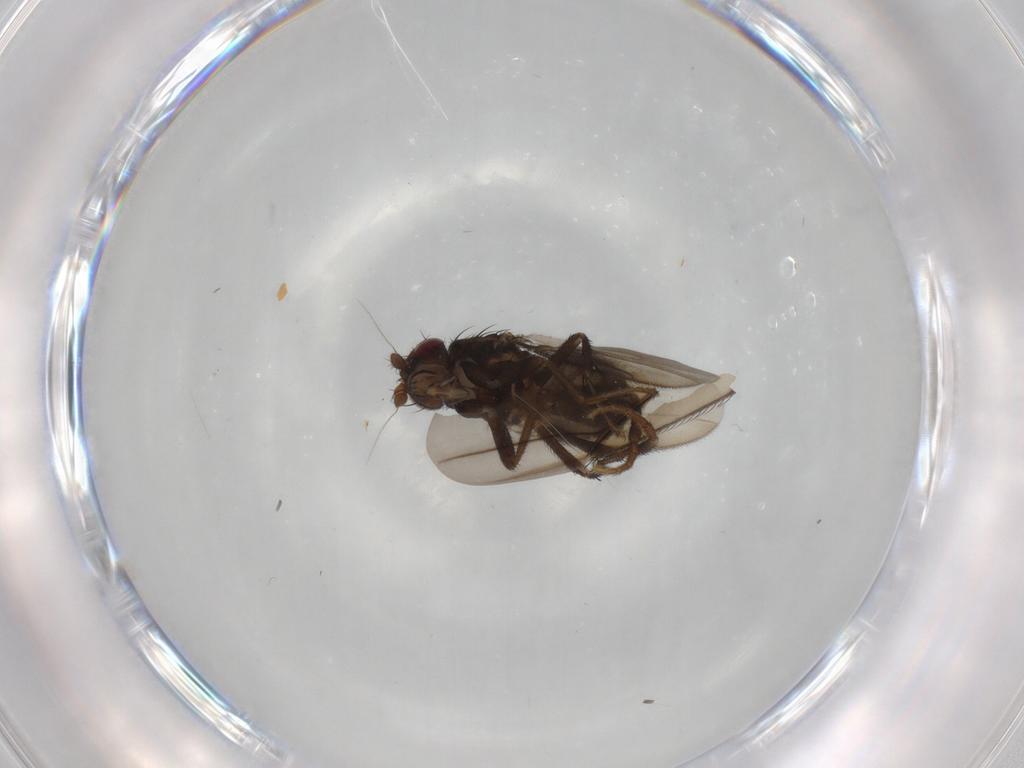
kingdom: Animalia
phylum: Arthropoda
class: Insecta
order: Diptera
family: Sphaeroceridae
